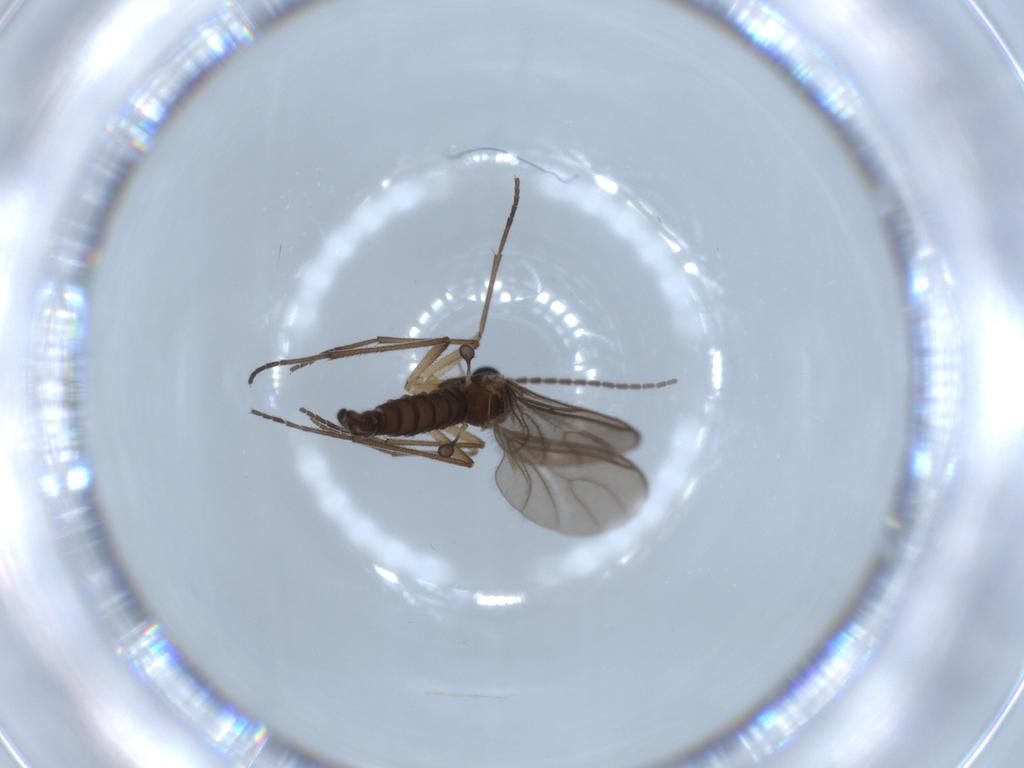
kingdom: Animalia
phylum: Arthropoda
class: Insecta
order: Diptera
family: Sciaridae
